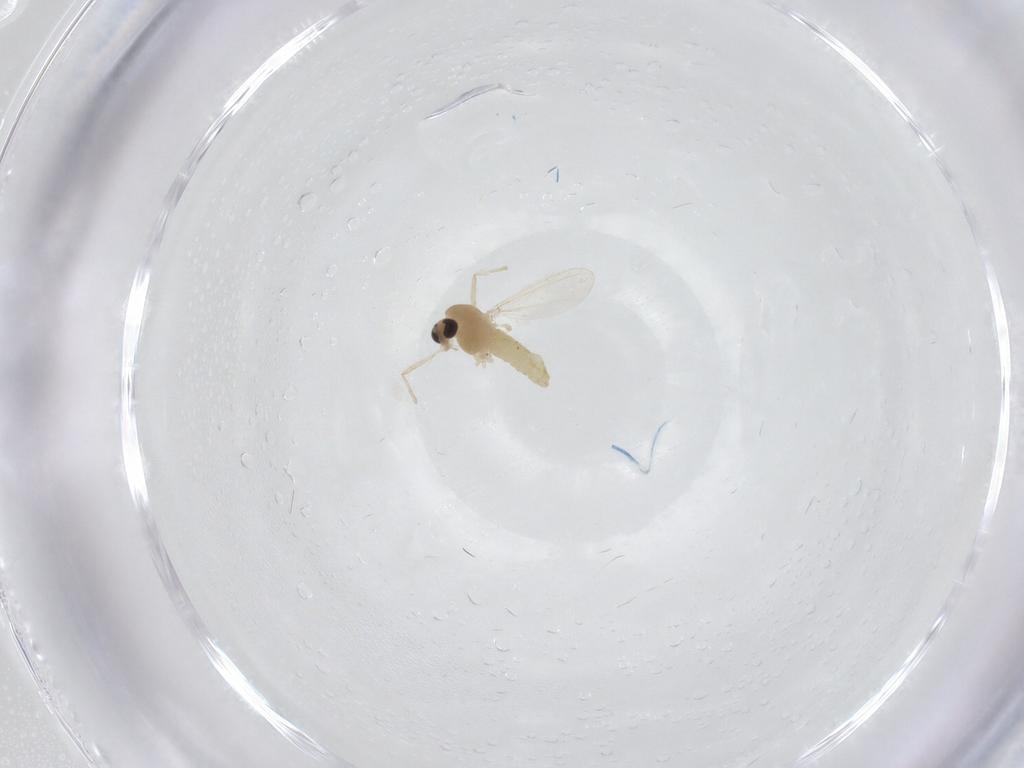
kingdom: Animalia
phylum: Arthropoda
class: Insecta
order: Diptera
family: Chironomidae
